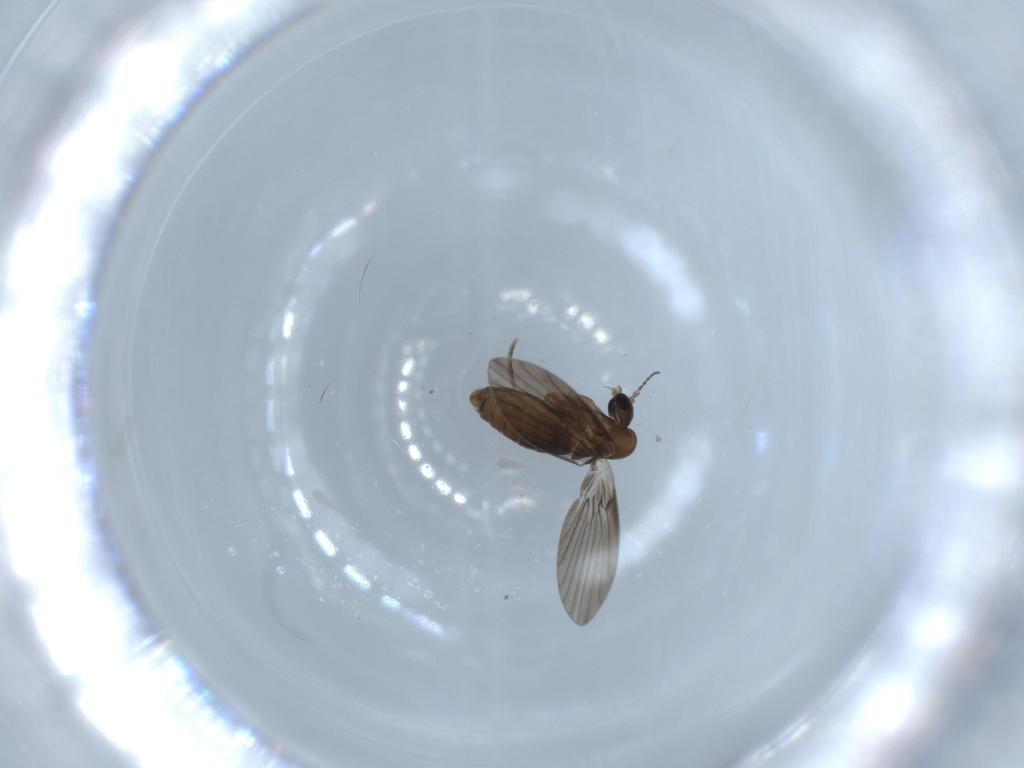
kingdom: Animalia
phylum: Arthropoda
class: Insecta
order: Diptera
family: Psychodidae
